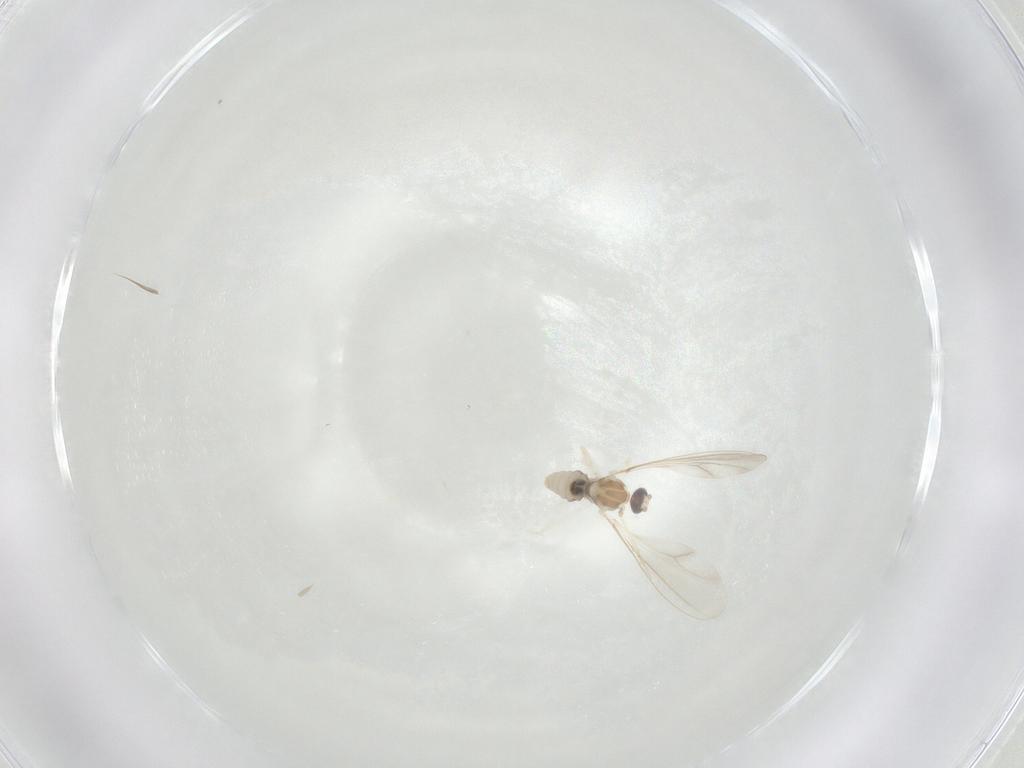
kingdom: Animalia
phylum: Arthropoda
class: Insecta
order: Diptera
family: Cecidomyiidae
